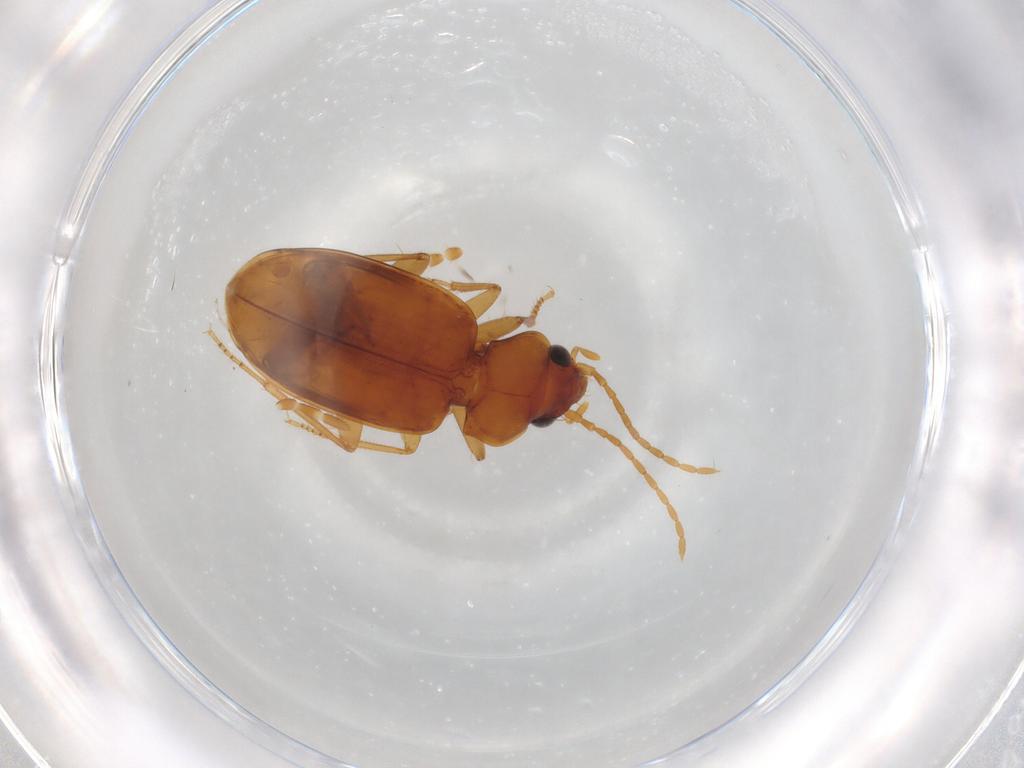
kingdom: Animalia
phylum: Arthropoda
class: Insecta
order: Coleoptera
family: Carabidae
